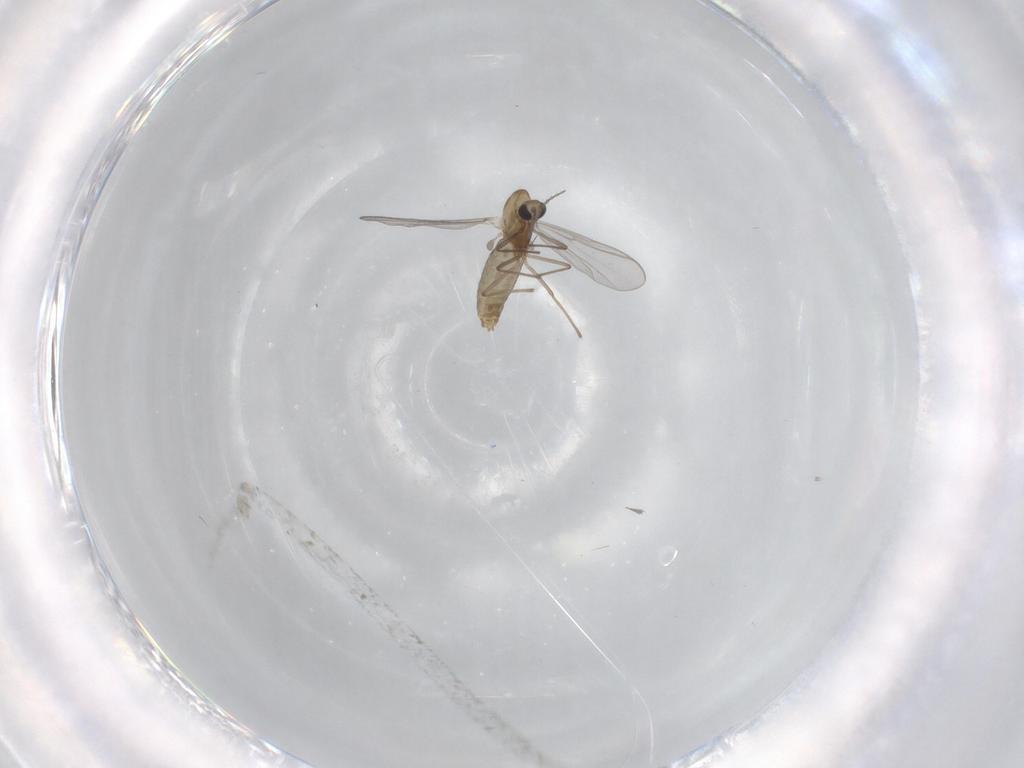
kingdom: Animalia
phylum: Arthropoda
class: Insecta
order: Diptera
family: Chironomidae
